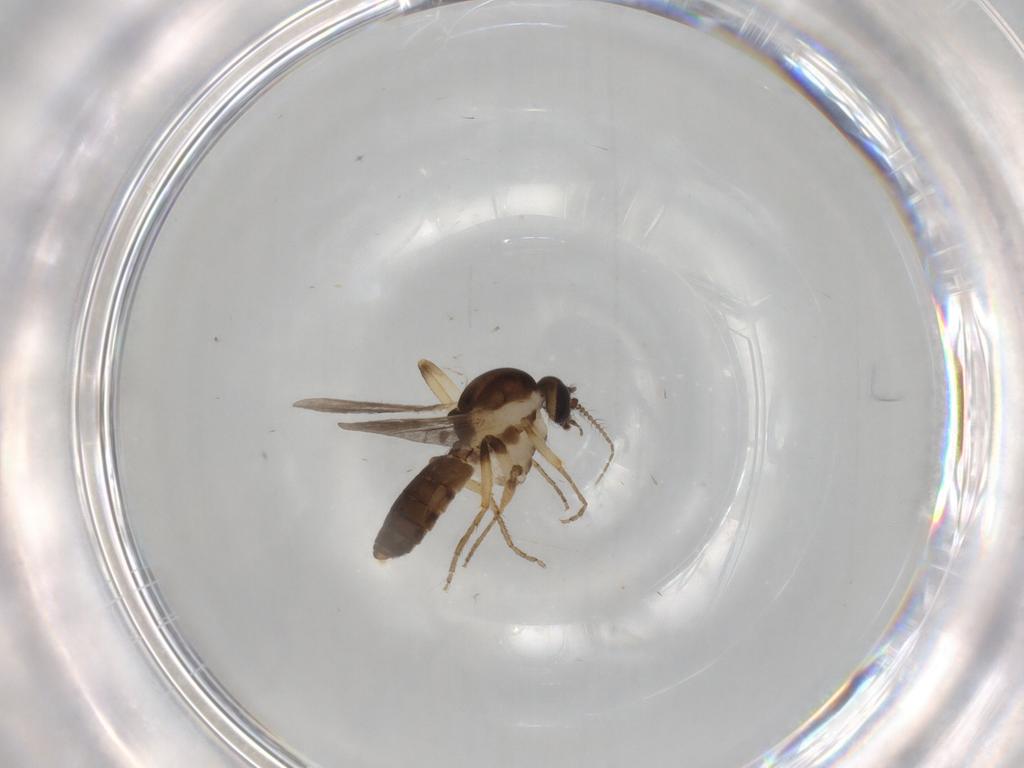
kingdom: Animalia
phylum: Arthropoda
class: Insecta
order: Diptera
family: Ceratopogonidae
